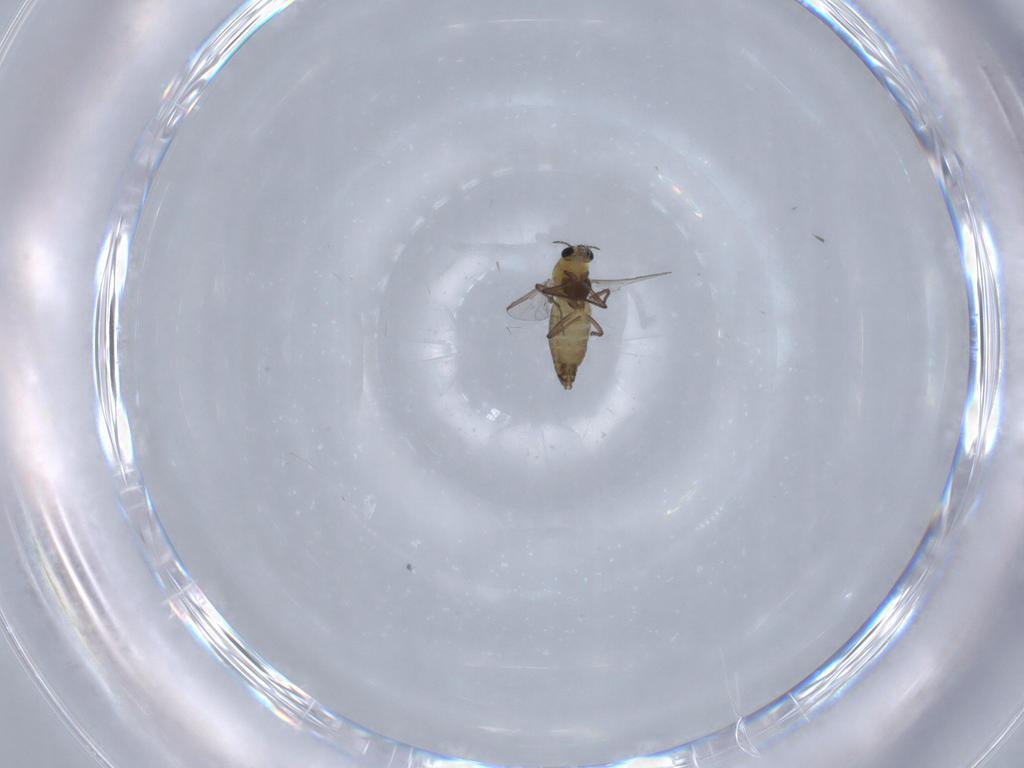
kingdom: Animalia
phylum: Arthropoda
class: Insecta
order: Diptera
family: Chironomidae
